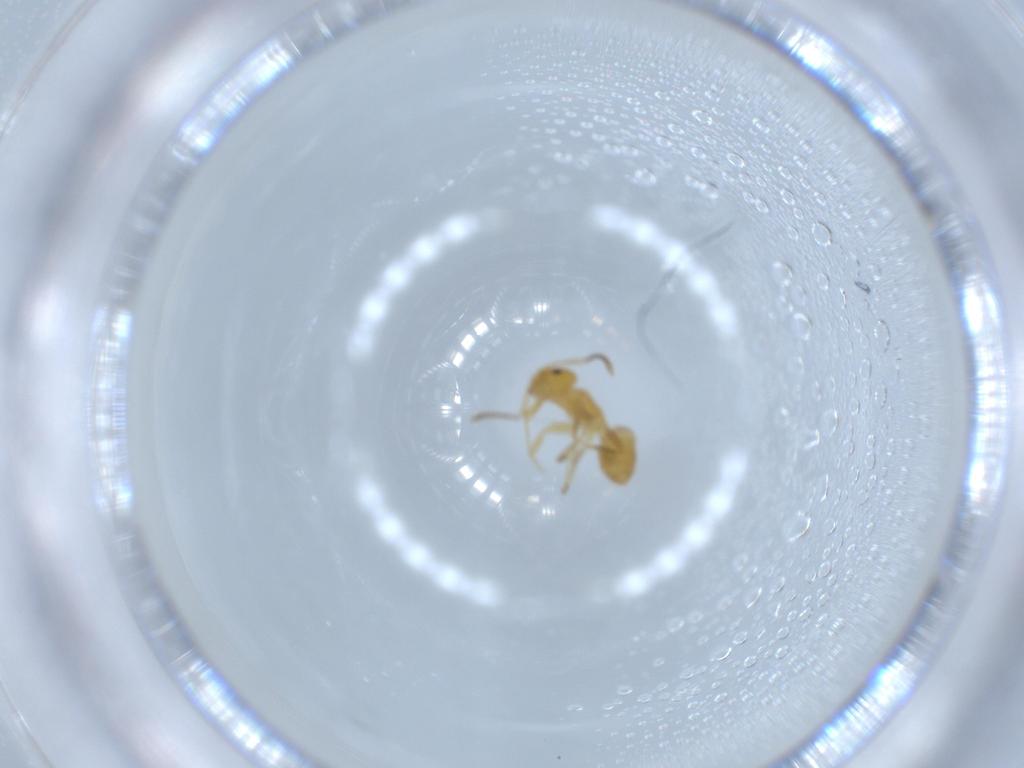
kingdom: Animalia
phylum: Arthropoda
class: Insecta
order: Hymenoptera
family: Formicidae
